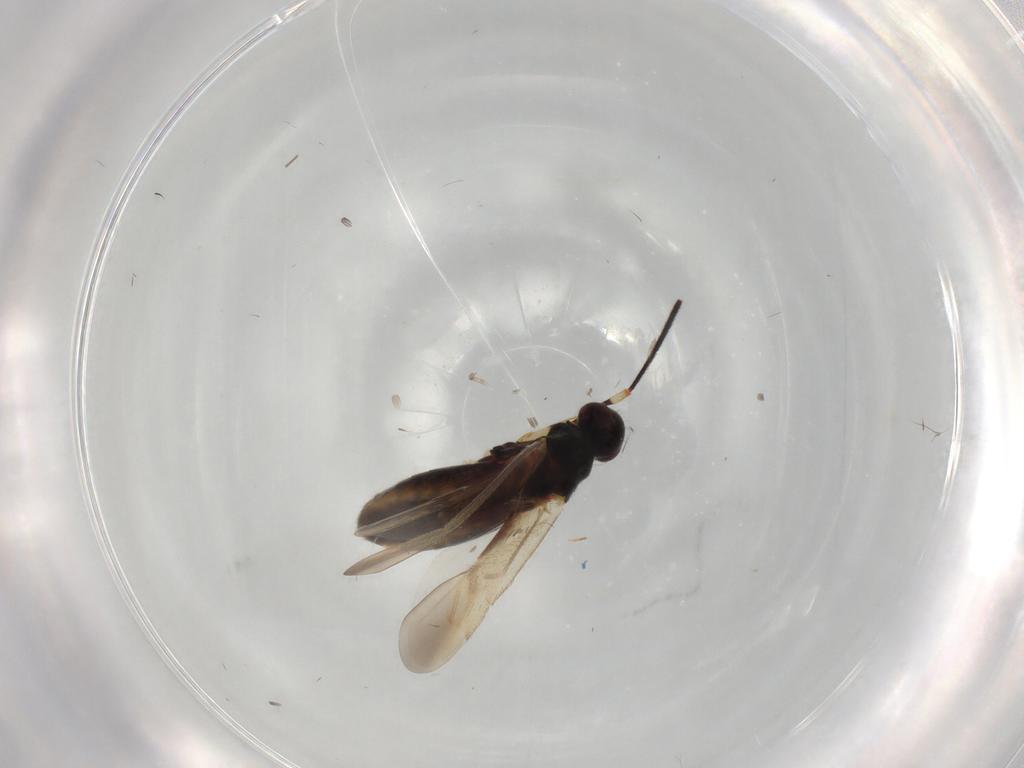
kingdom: Animalia
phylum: Arthropoda
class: Insecta
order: Hemiptera
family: Miridae
